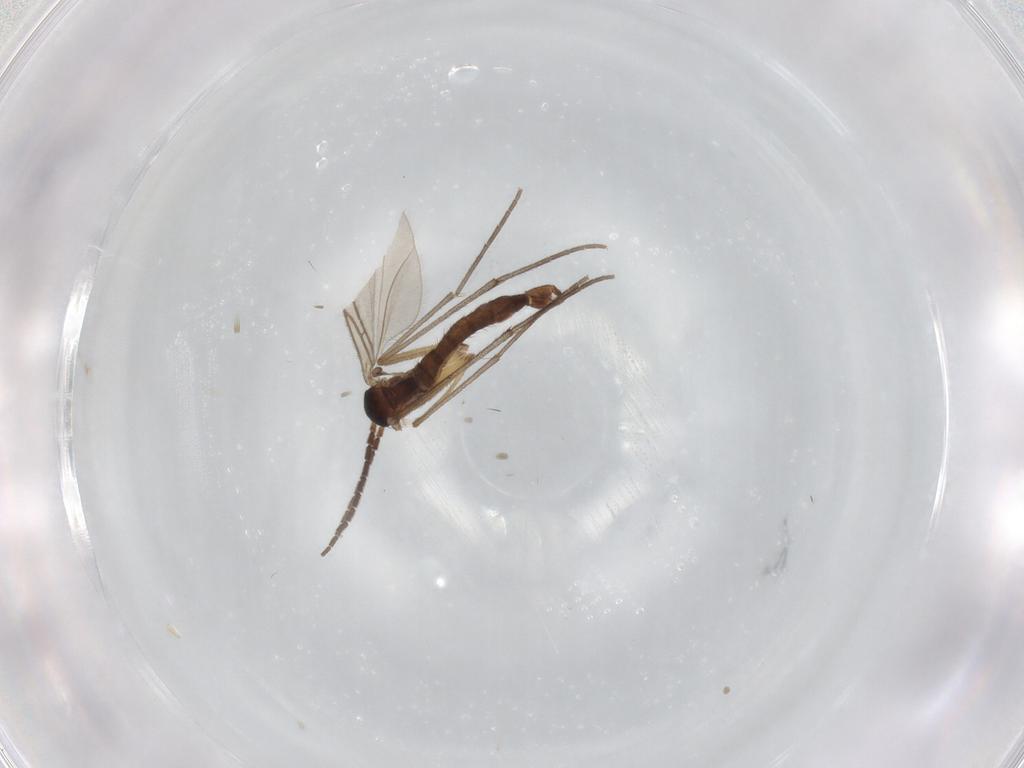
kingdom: Animalia
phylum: Arthropoda
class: Insecta
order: Diptera
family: Sciaridae
